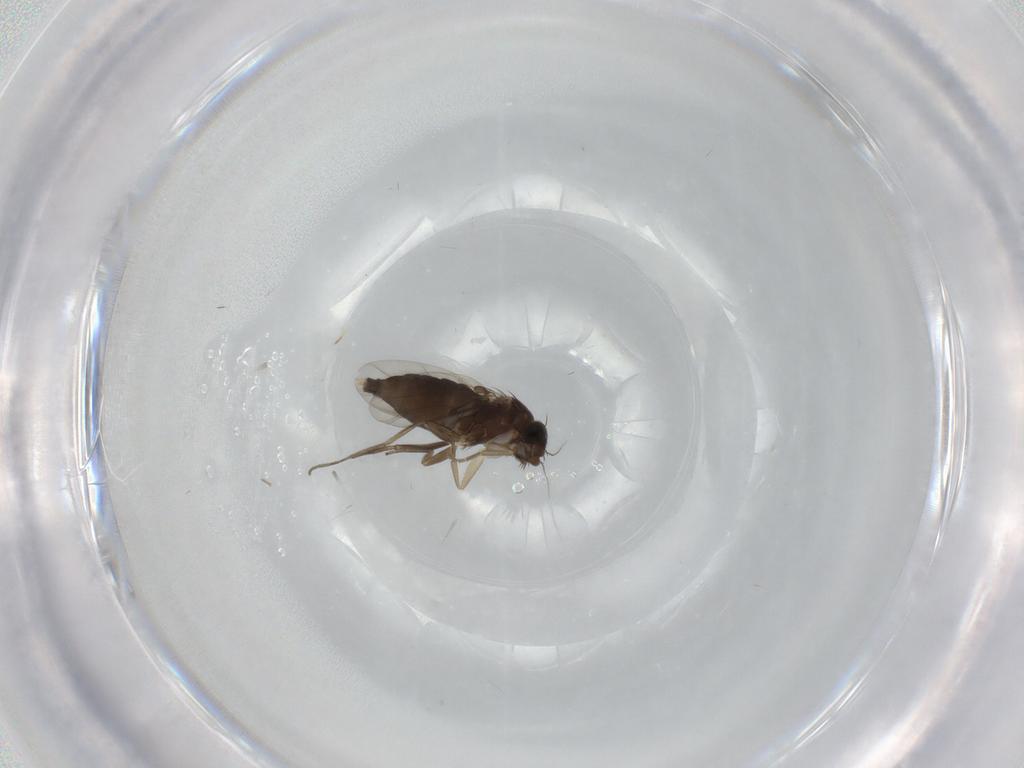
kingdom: Animalia
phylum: Arthropoda
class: Insecta
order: Diptera
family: Phoridae
